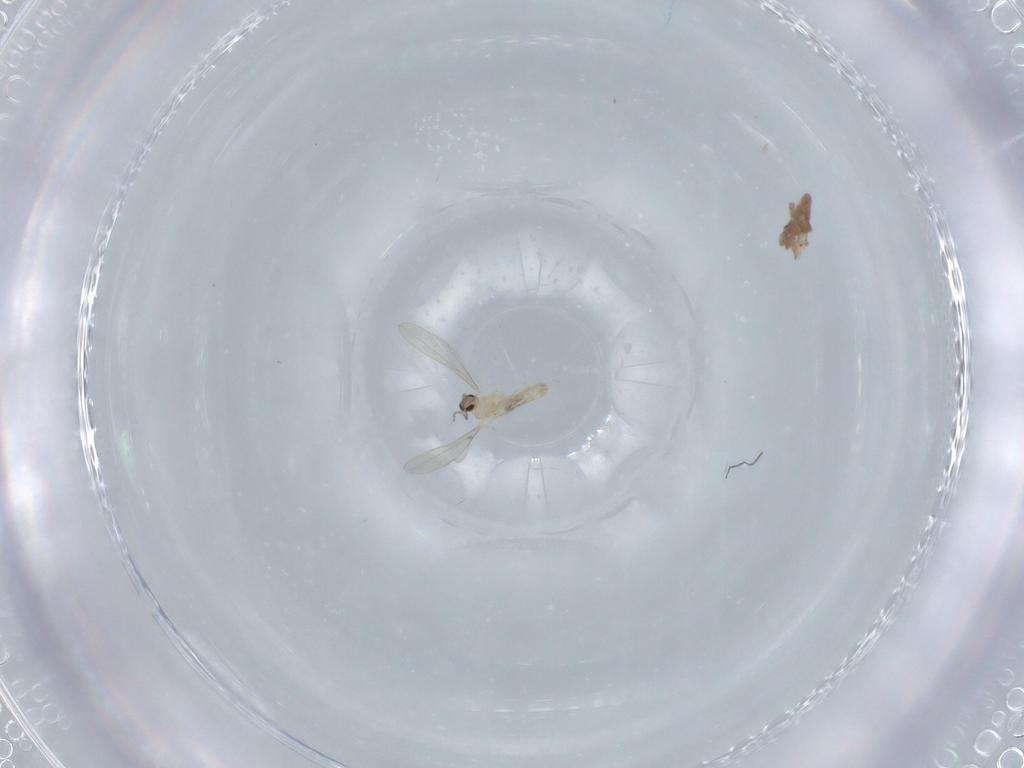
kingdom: Animalia
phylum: Arthropoda
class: Insecta
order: Diptera
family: Cecidomyiidae
